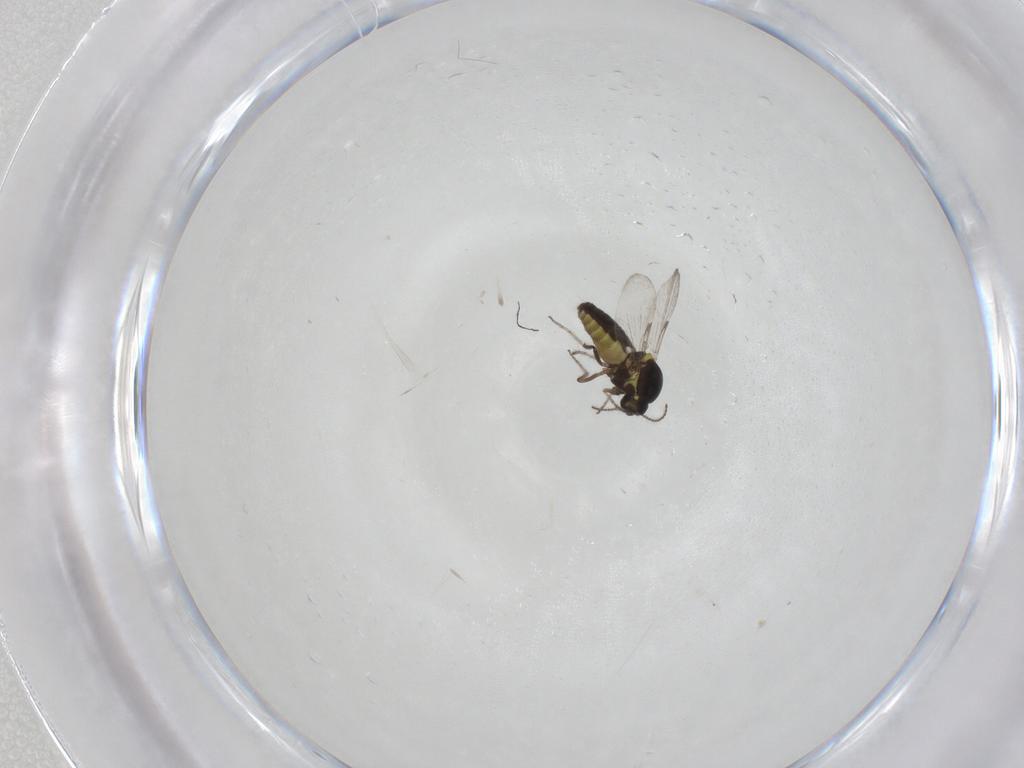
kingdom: Animalia
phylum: Arthropoda
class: Insecta
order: Diptera
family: Ceratopogonidae
